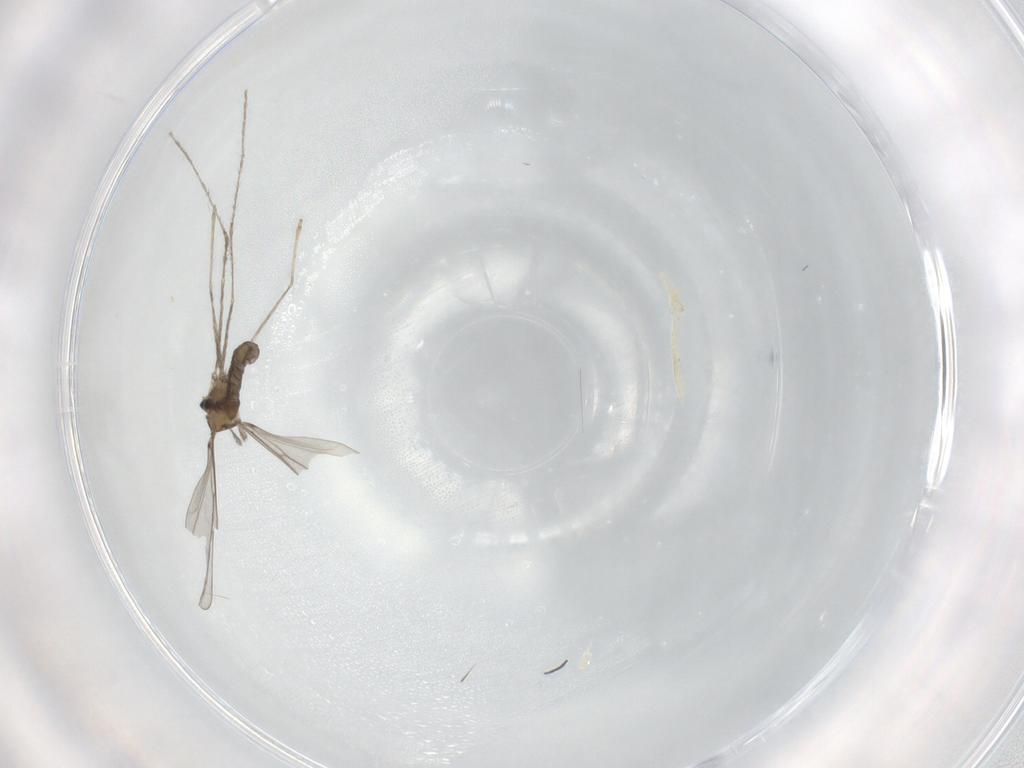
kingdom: Animalia
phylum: Arthropoda
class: Insecta
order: Diptera
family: Cecidomyiidae
